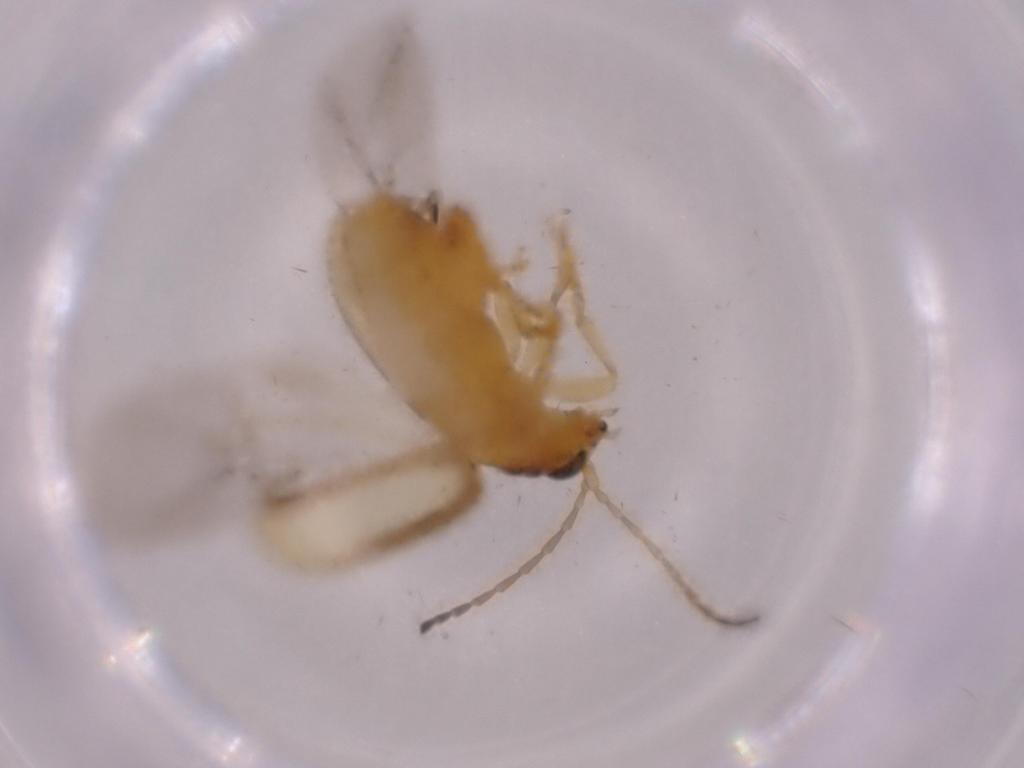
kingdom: Animalia
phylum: Arthropoda
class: Insecta
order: Coleoptera
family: Chrysomelidae
